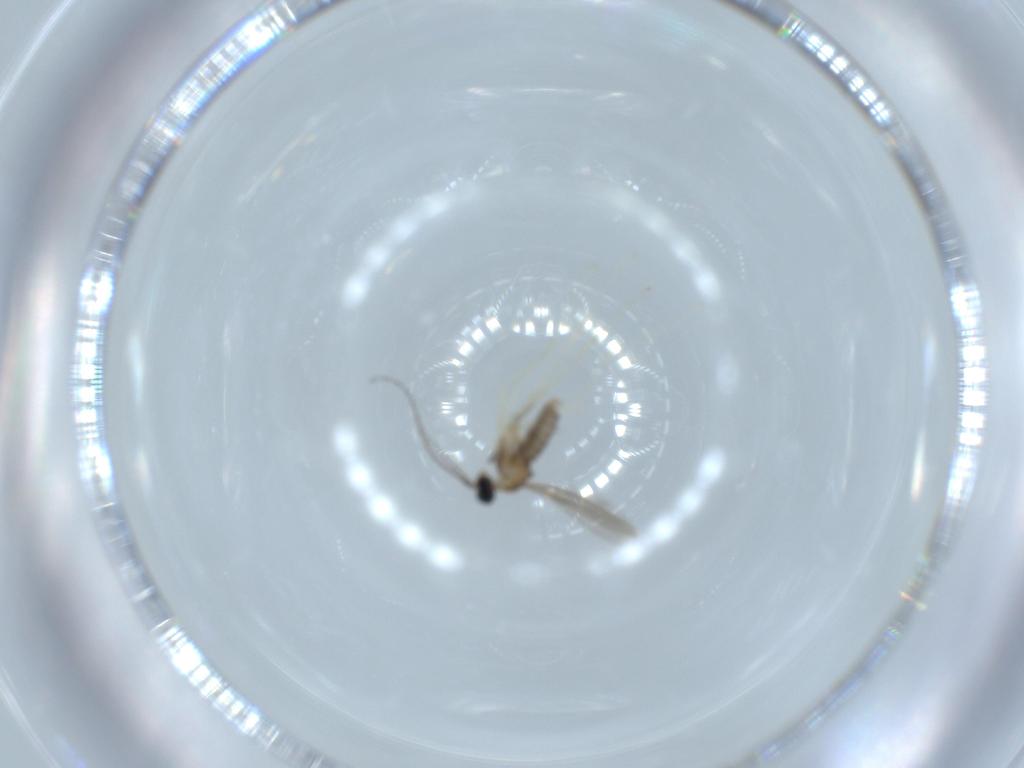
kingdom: Animalia
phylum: Arthropoda
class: Insecta
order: Diptera
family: Cecidomyiidae
